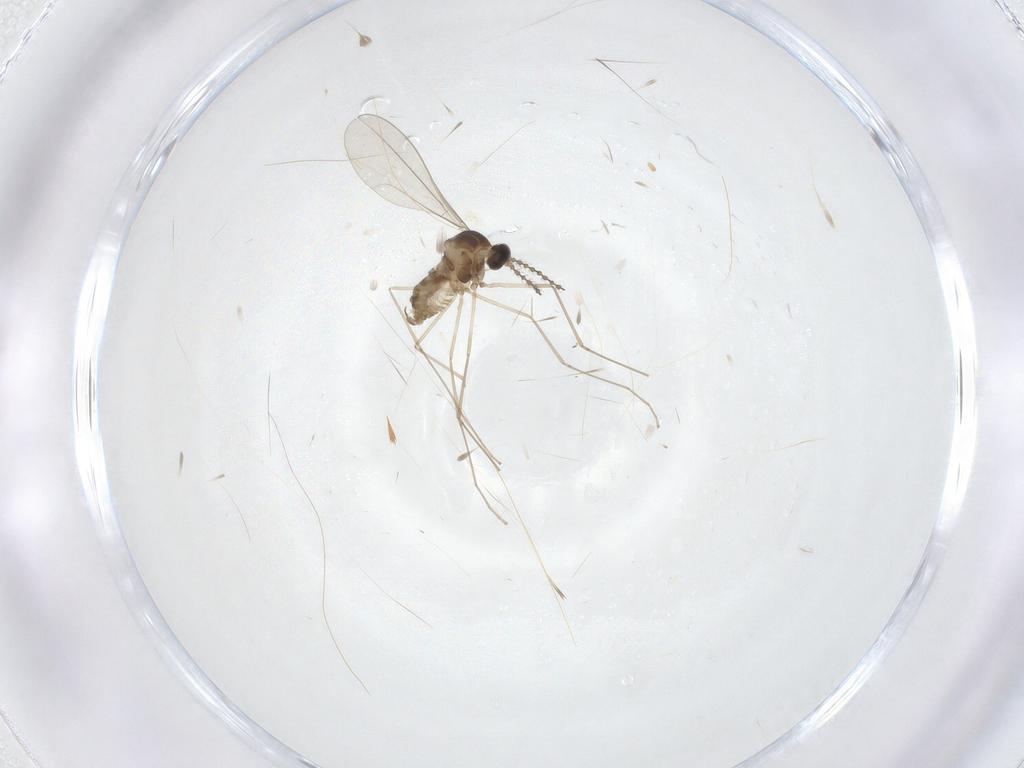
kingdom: Animalia
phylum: Arthropoda
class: Insecta
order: Diptera
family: Cecidomyiidae
